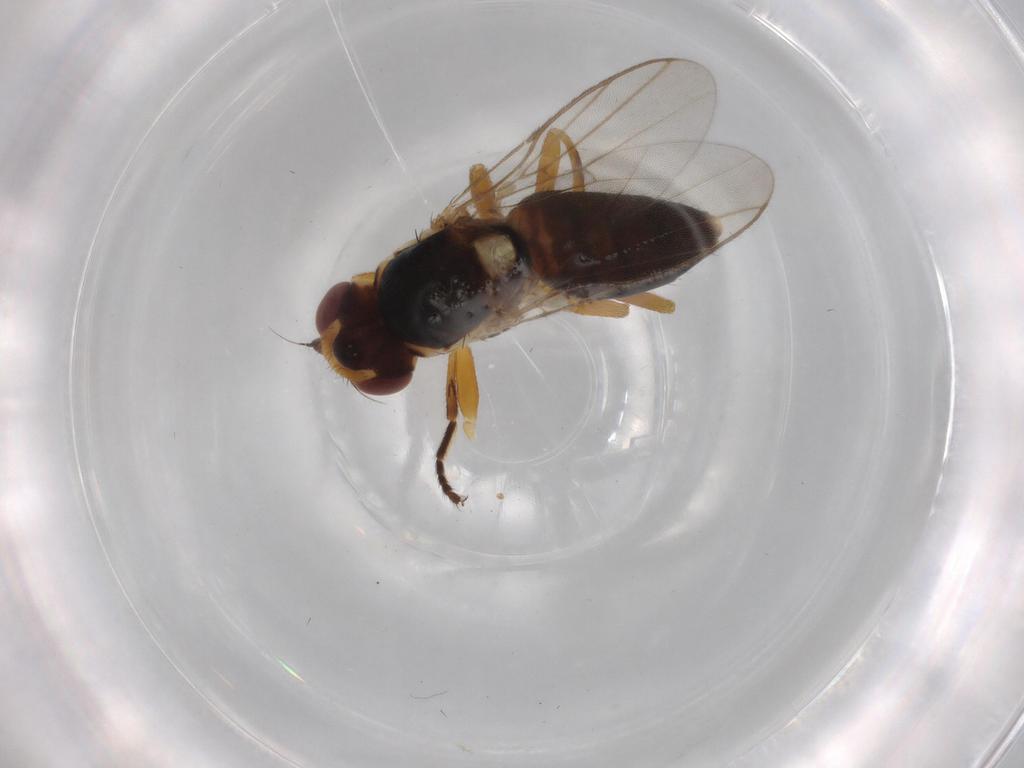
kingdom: Animalia
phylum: Arthropoda
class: Insecta
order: Diptera
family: Chloropidae
